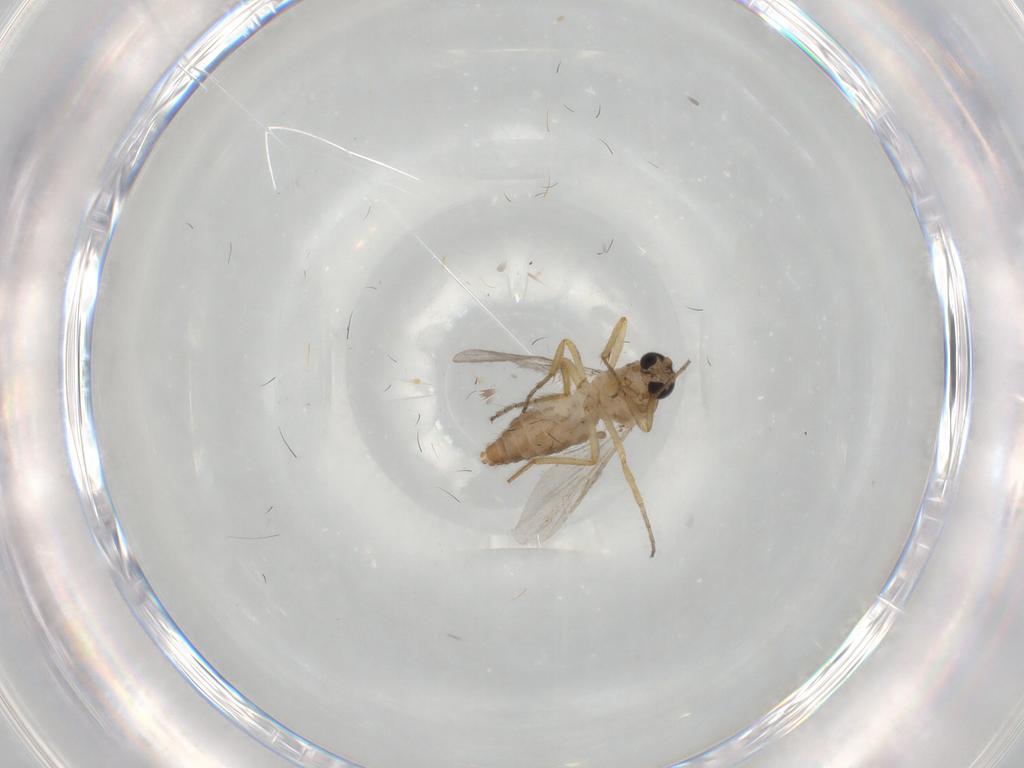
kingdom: Animalia
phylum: Arthropoda
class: Insecta
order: Diptera
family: Ceratopogonidae
